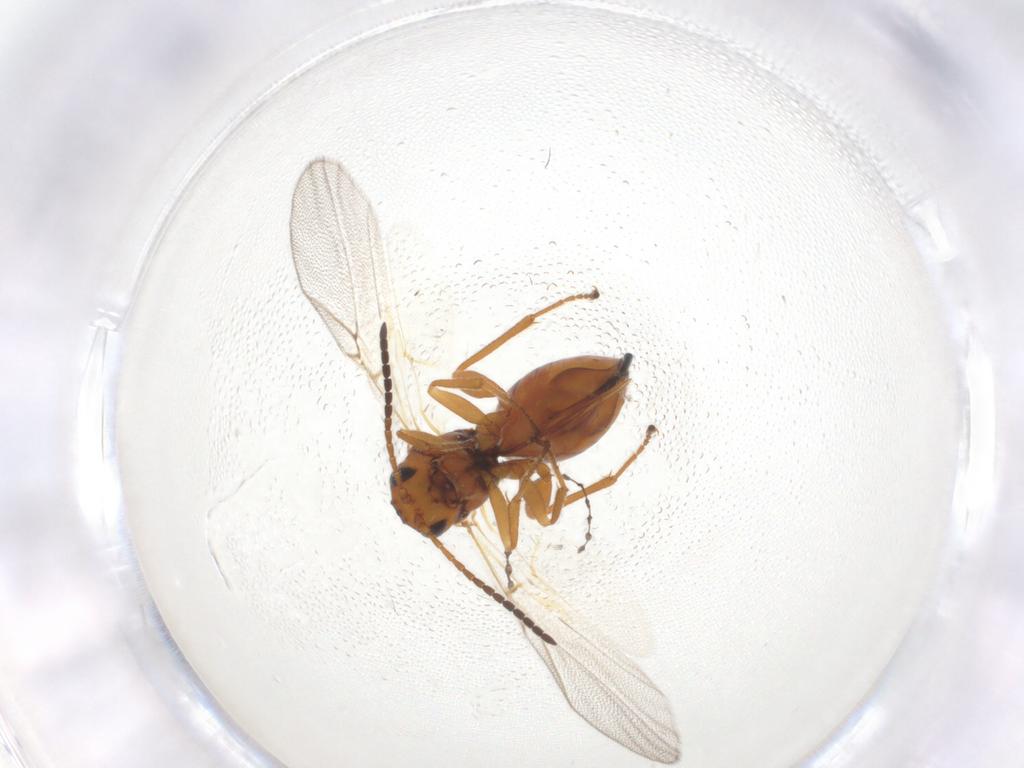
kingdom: Animalia
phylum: Arthropoda
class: Insecta
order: Hymenoptera
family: Cynipidae
